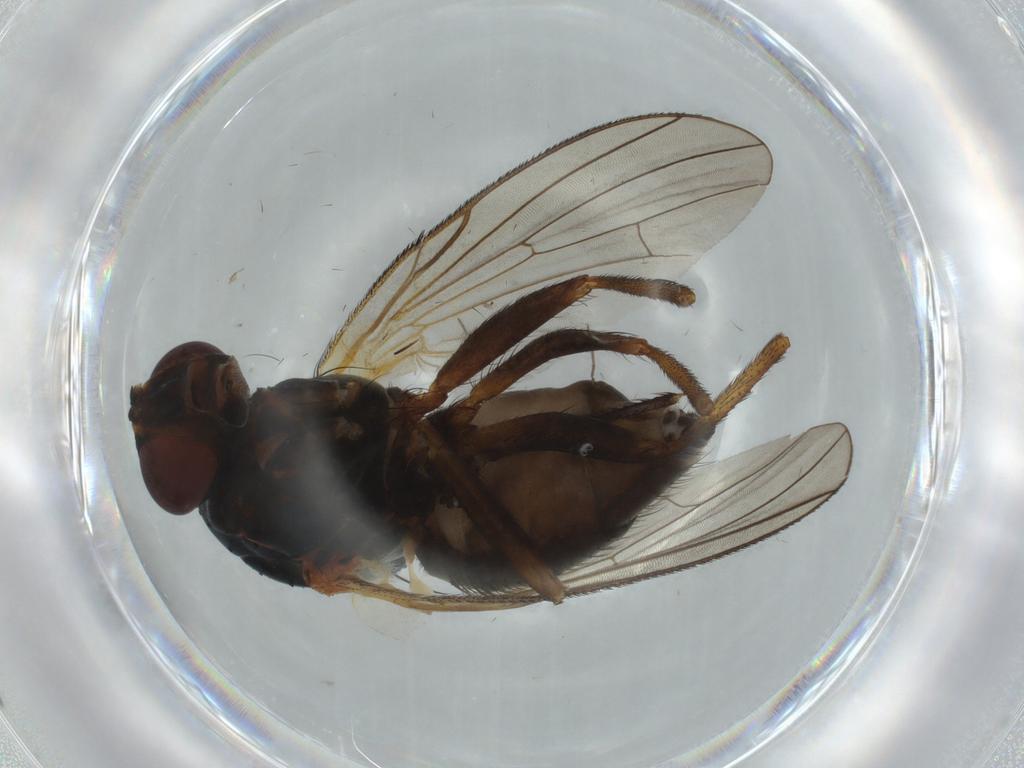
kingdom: Animalia
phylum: Arthropoda
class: Insecta
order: Diptera
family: Anthomyiidae
